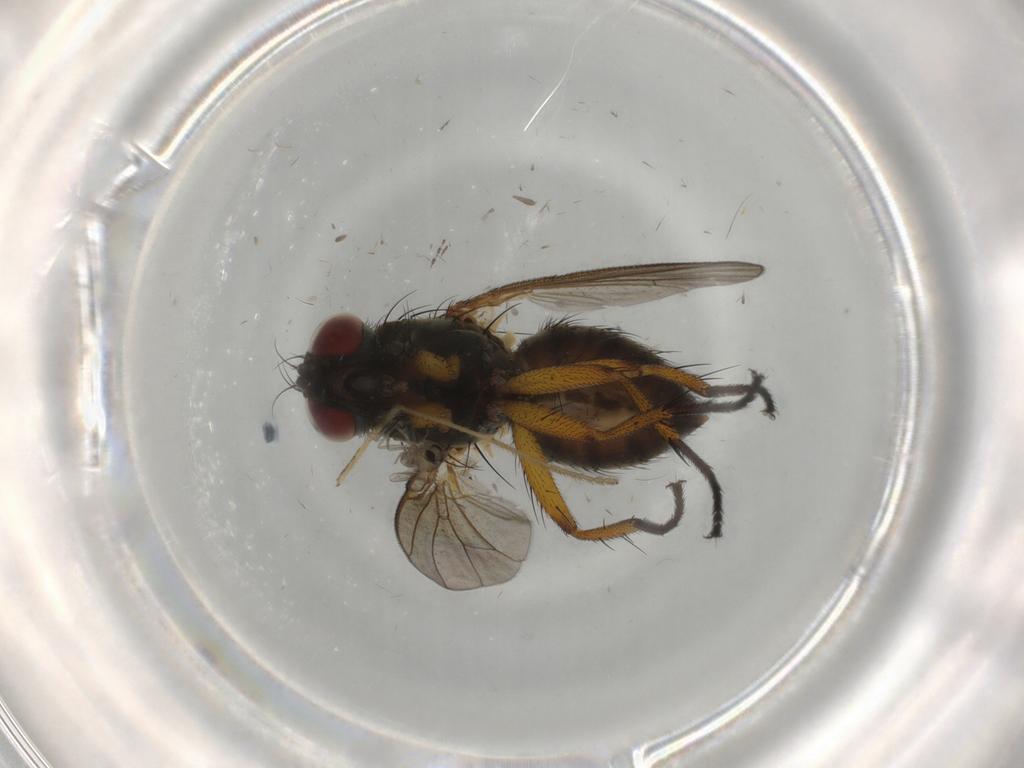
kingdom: Animalia
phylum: Arthropoda
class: Insecta
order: Diptera
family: Muscidae
